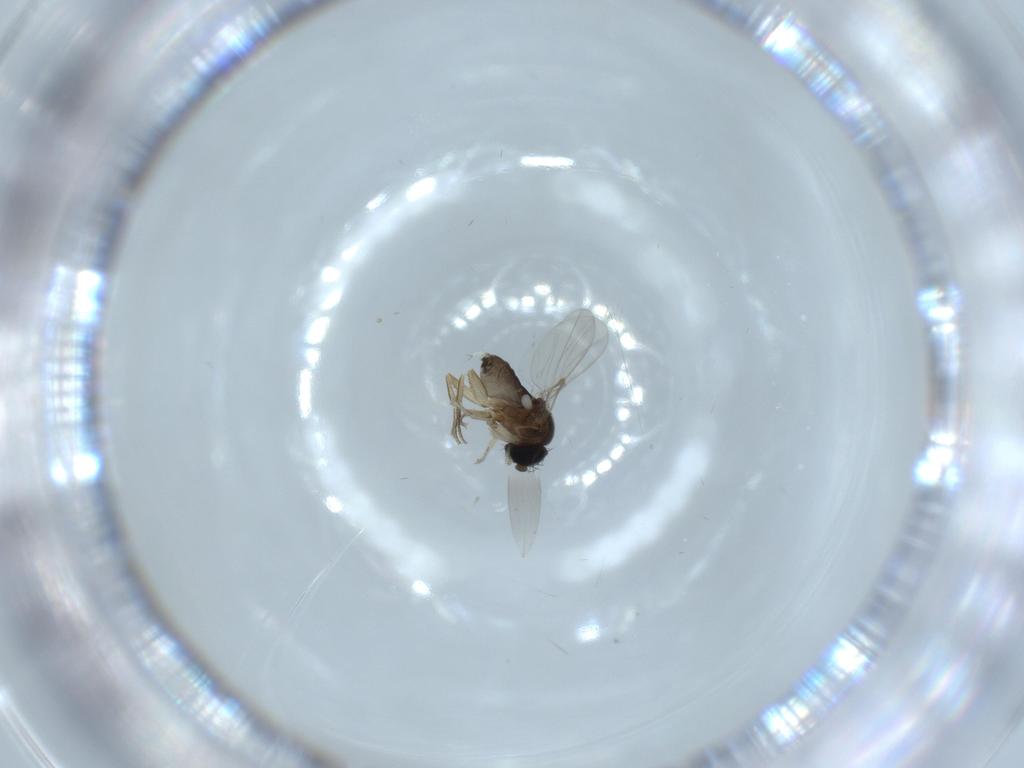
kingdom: Animalia
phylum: Arthropoda
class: Insecta
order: Diptera
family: Phoridae
